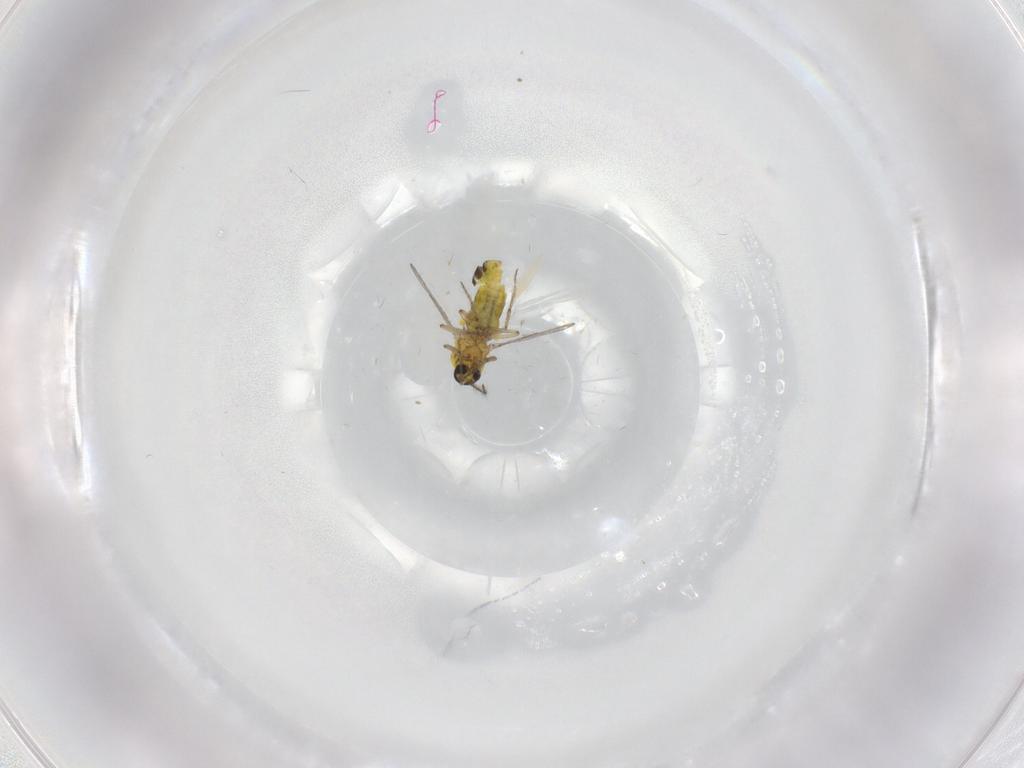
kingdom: Animalia
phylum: Arthropoda
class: Insecta
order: Diptera
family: Ceratopogonidae
